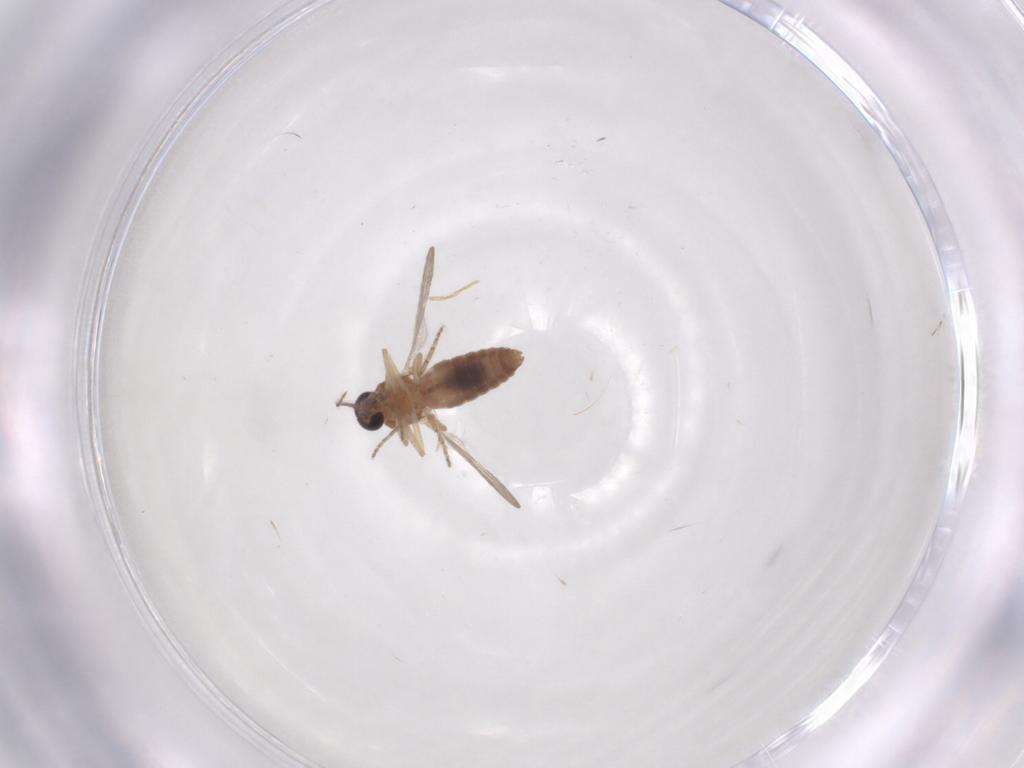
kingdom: Animalia
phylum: Arthropoda
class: Insecta
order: Diptera
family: Ceratopogonidae
